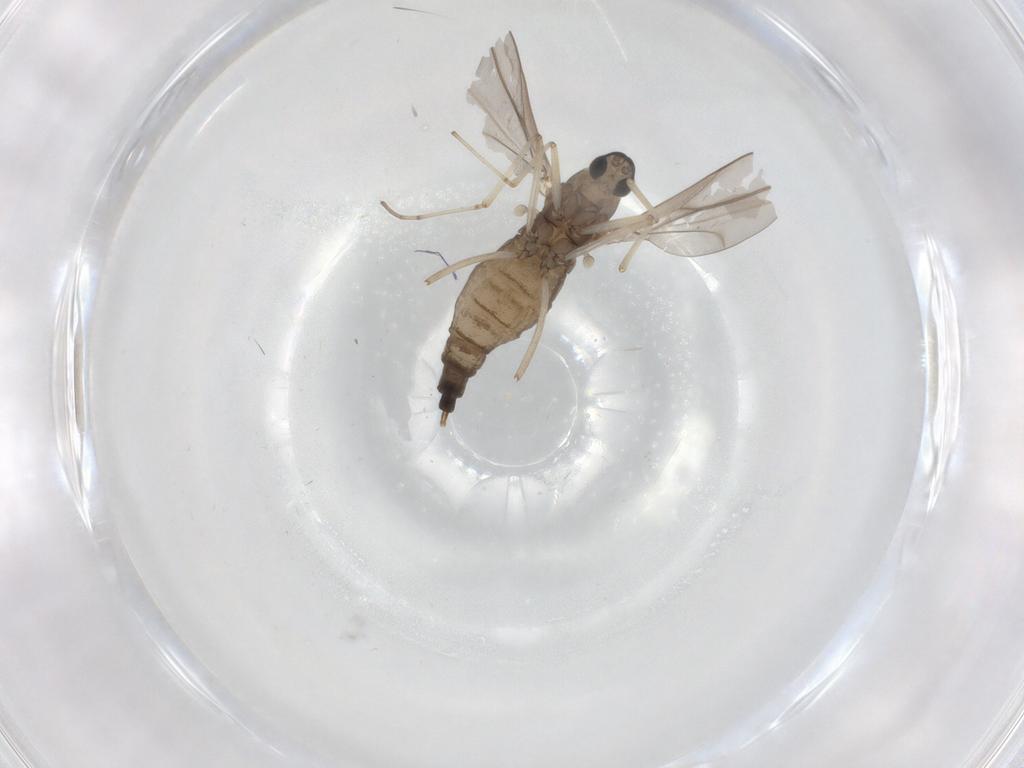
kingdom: Animalia
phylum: Arthropoda
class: Insecta
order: Diptera
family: Cecidomyiidae
